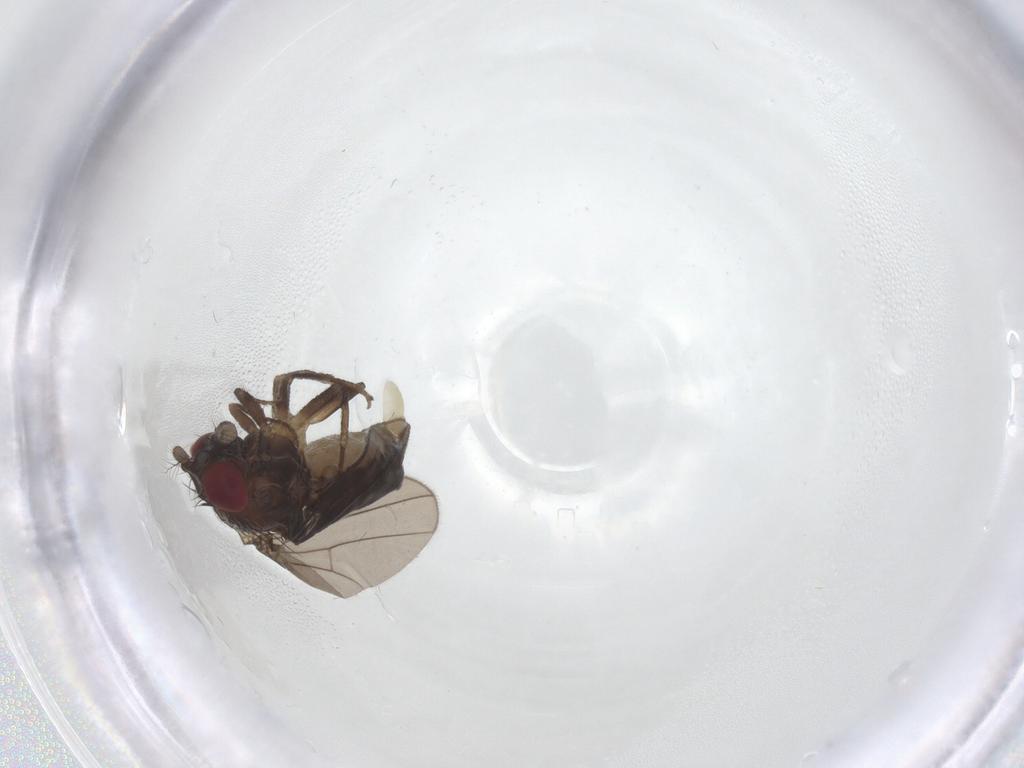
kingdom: Animalia
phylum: Arthropoda
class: Insecta
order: Diptera
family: Drosophilidae
